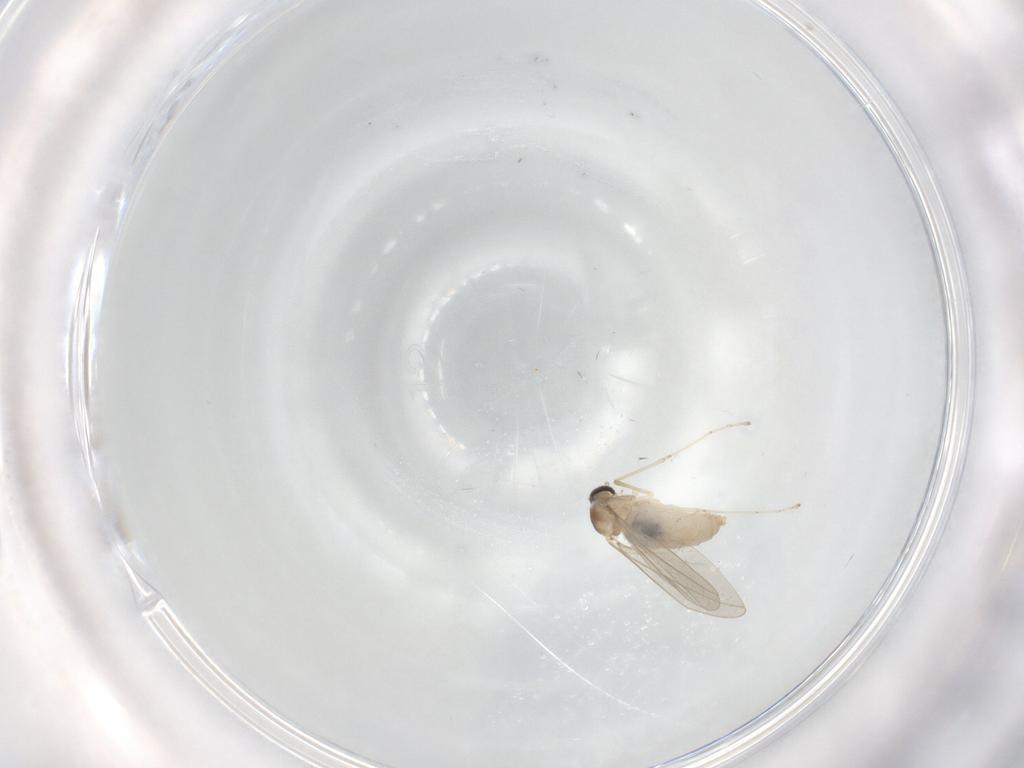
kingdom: Animalia
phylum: Arthropoda
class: Insecta
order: Diptera
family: Cecidomyiidae
